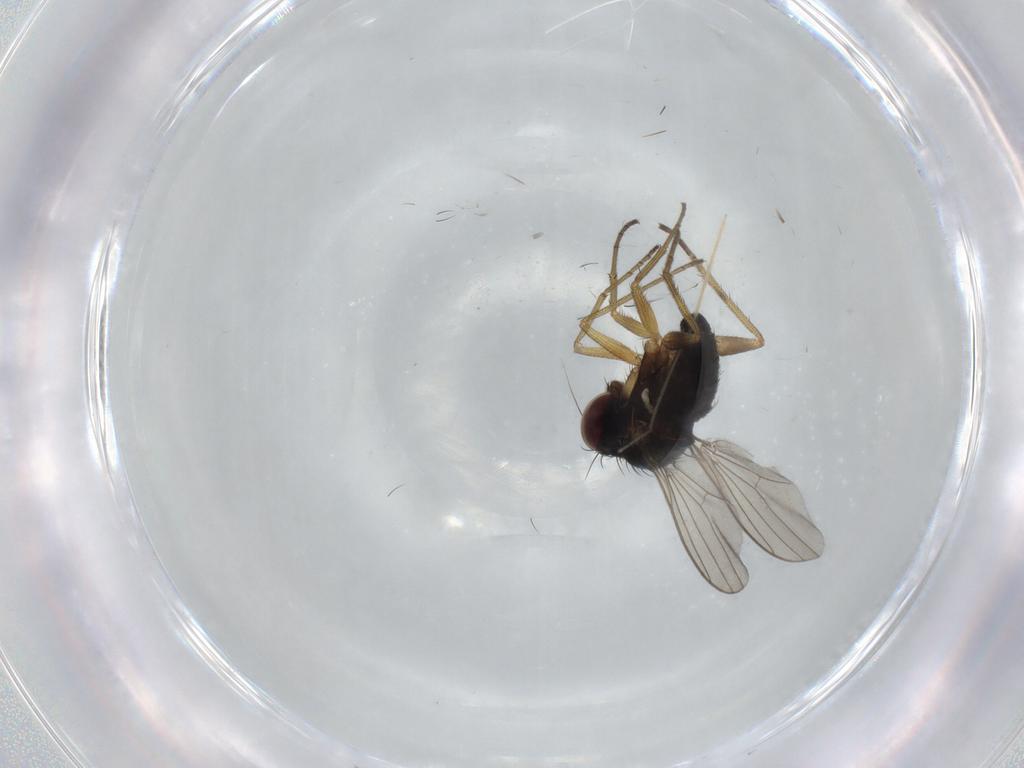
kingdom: Animalia
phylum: Arthropoda
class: Insecta
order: Diptera
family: Dolichopodidae
